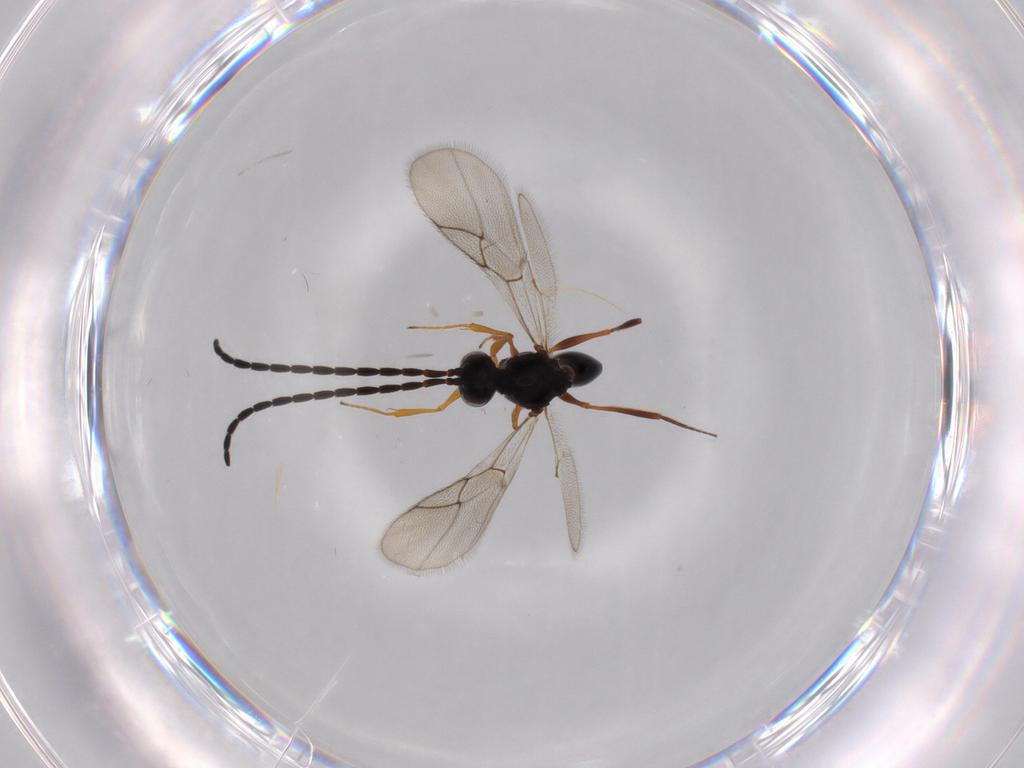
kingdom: Animalia
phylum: Arthropoda
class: Insecta
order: Hymenoptera
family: Figitidae
